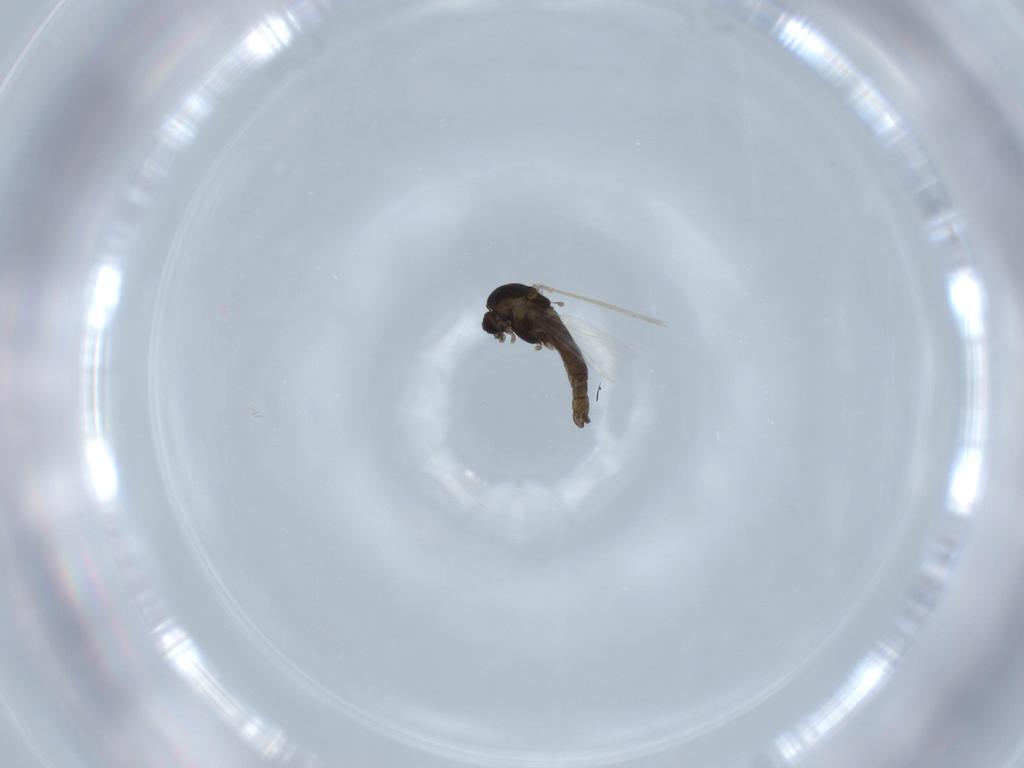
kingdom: Animalia
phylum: Arthropoda
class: Insecta
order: Diptera
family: Chironomidae
